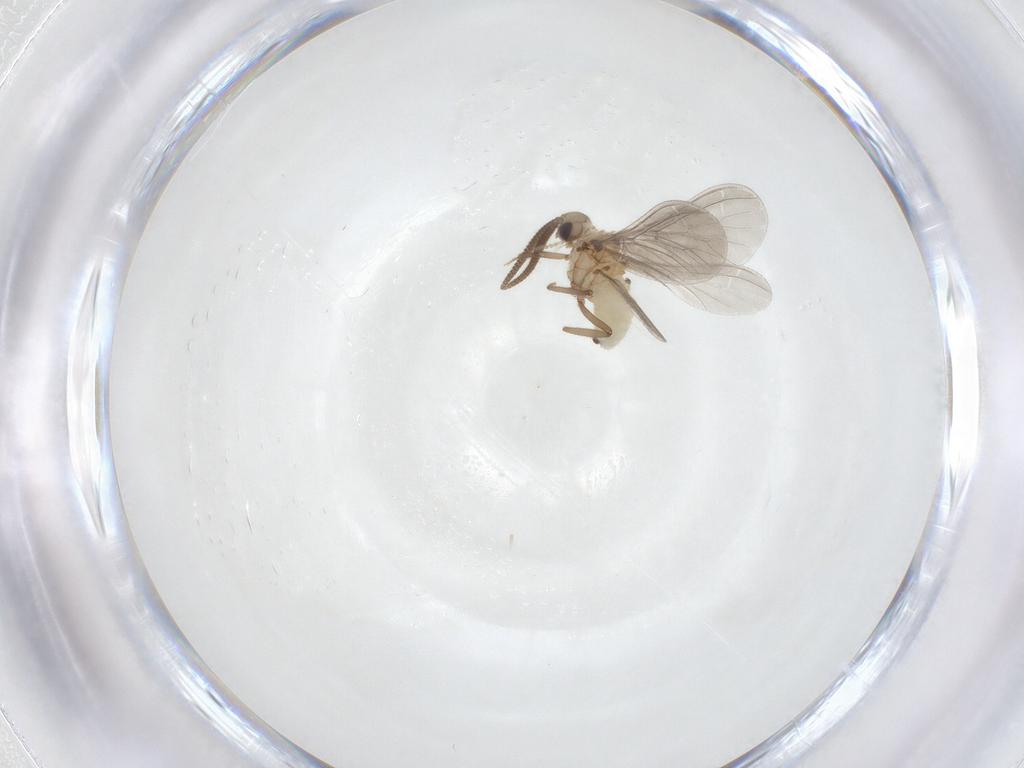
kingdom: Animalia
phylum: Arthropoda
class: Insecta
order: Neuroptera
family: Coniopterygidae
